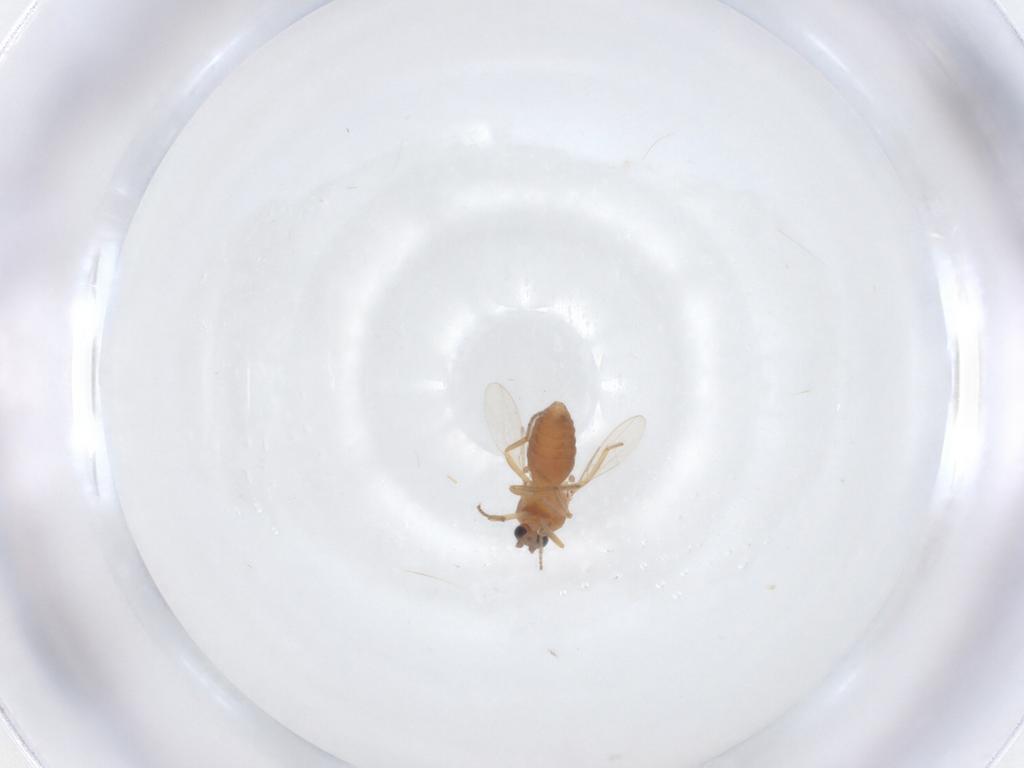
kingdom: Animalia
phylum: Arthropoda
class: Insecta
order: Diptera
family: Ceratopogonidae
